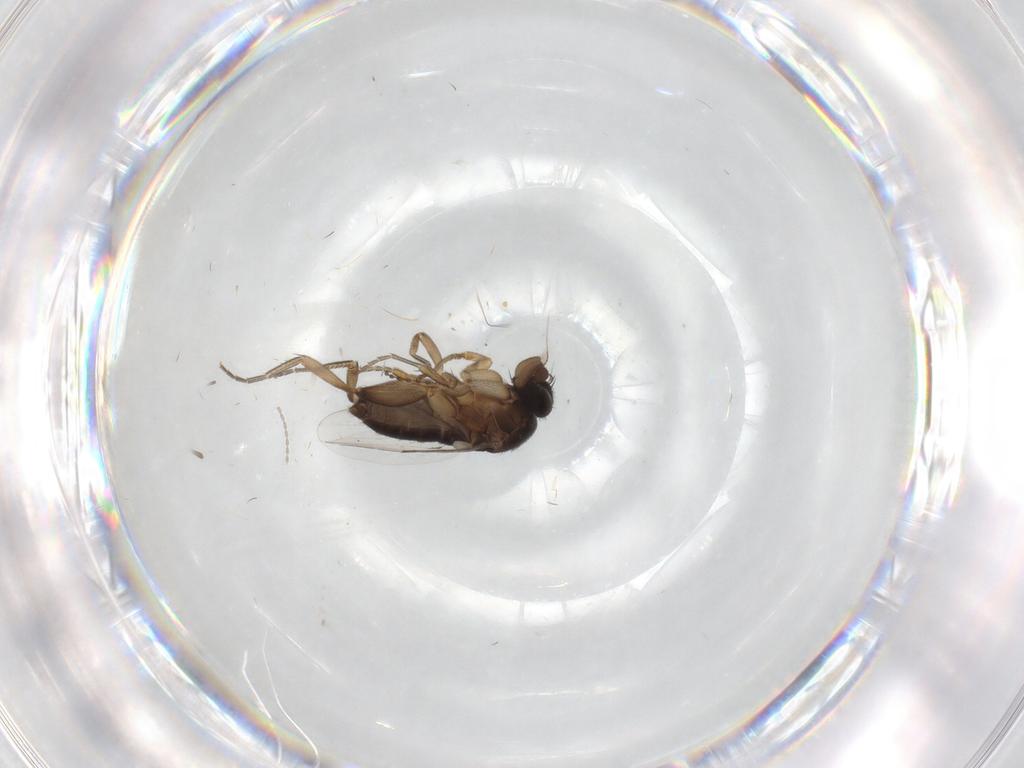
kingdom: Animalia
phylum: Arthropoda
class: Insecta
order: Diptera
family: Phoridae
